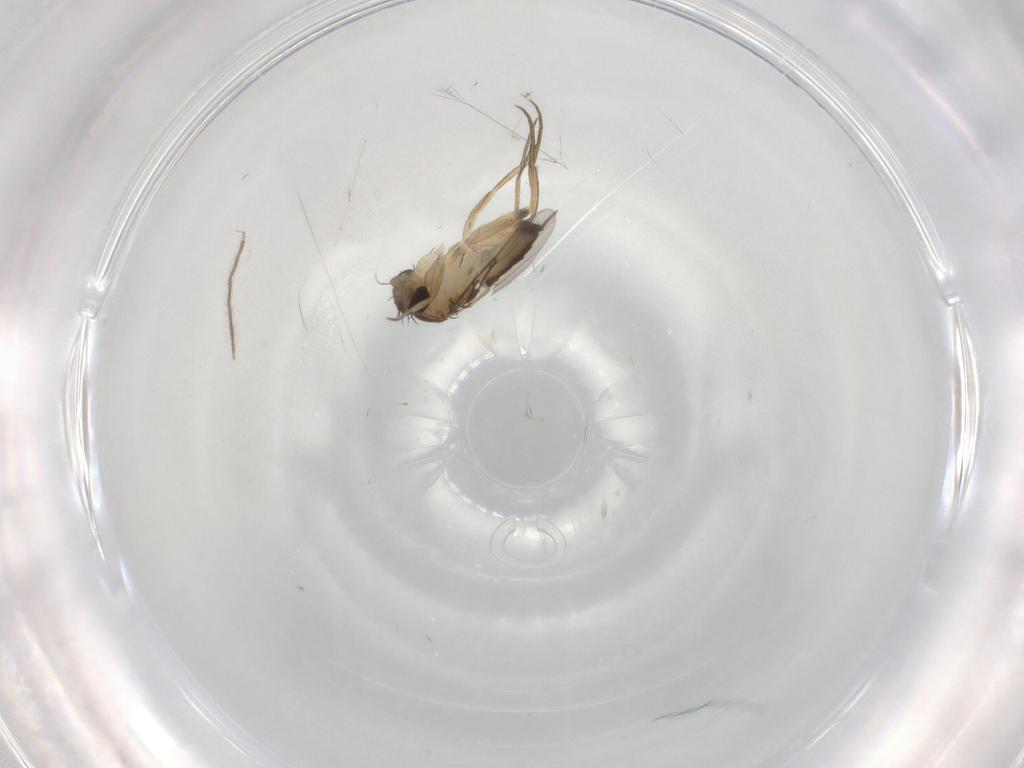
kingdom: Animalia
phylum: Arthropoda
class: Insecta
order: Diptera
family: Phoridae
